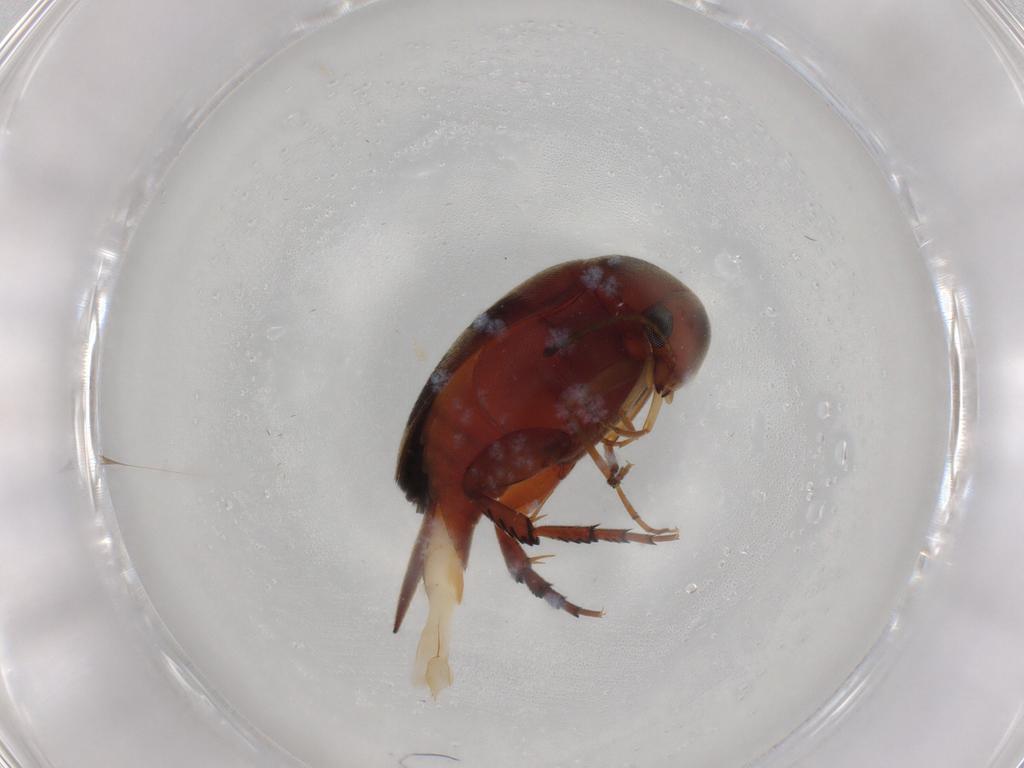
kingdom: Animalia
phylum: Arthropoda
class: Insecta
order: Coleoptera
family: Mordellidae
